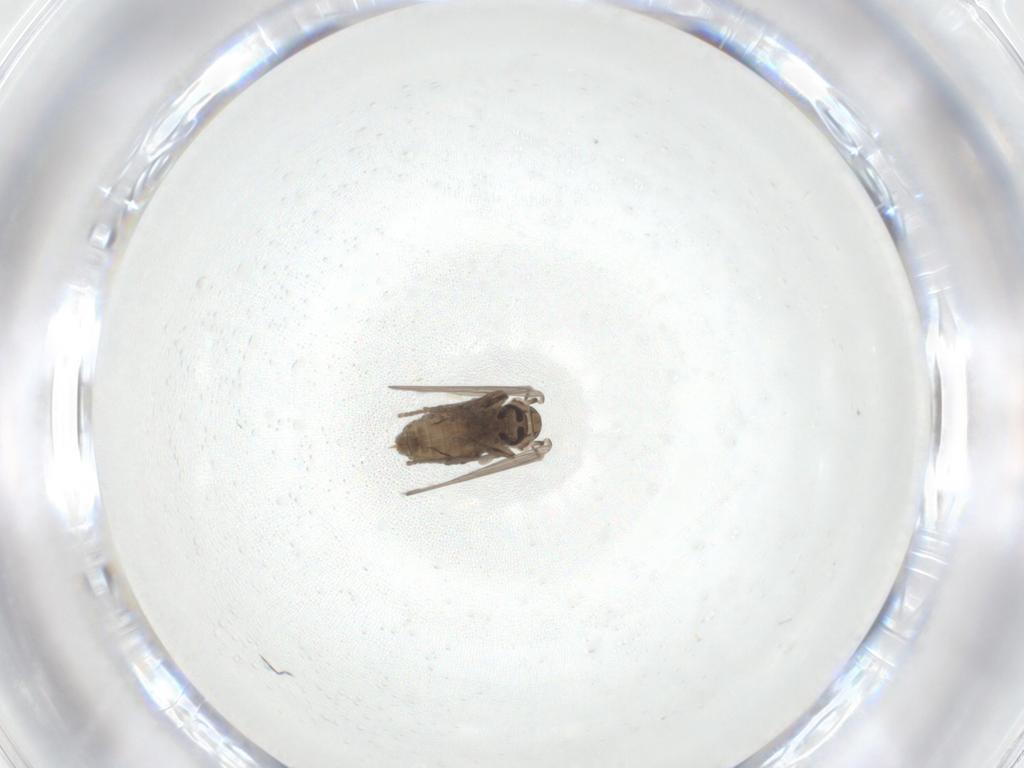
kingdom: Animalia
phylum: Arthropoda
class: Insecta
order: Diptera
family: Psychodidae
